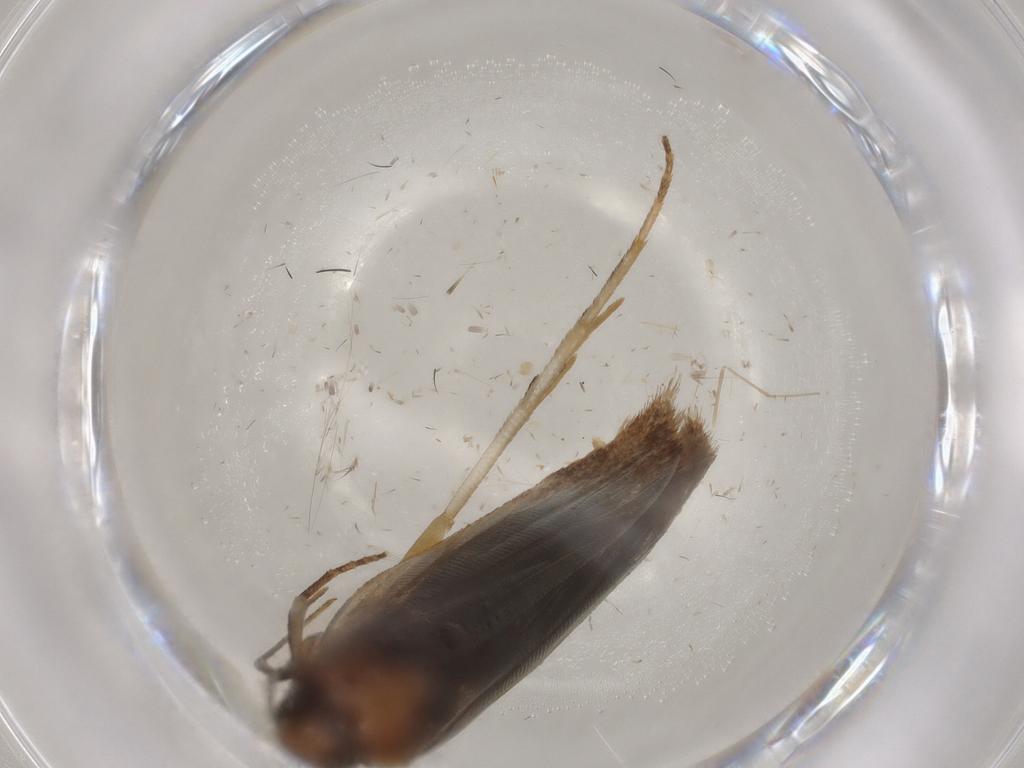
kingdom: Animalia
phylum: Arthropoda
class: Insecta
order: Lepidoptera
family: Gelechiidae
